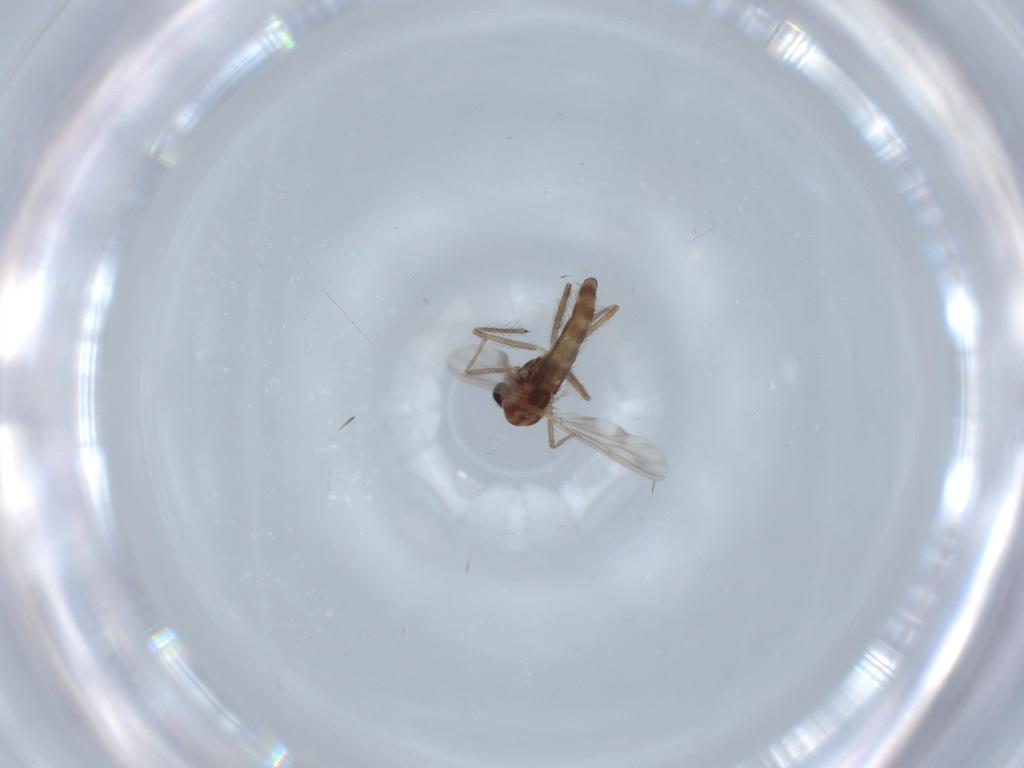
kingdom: Animalia
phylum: Arthropoda
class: Insecta
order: Diptera
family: Chironomidae
